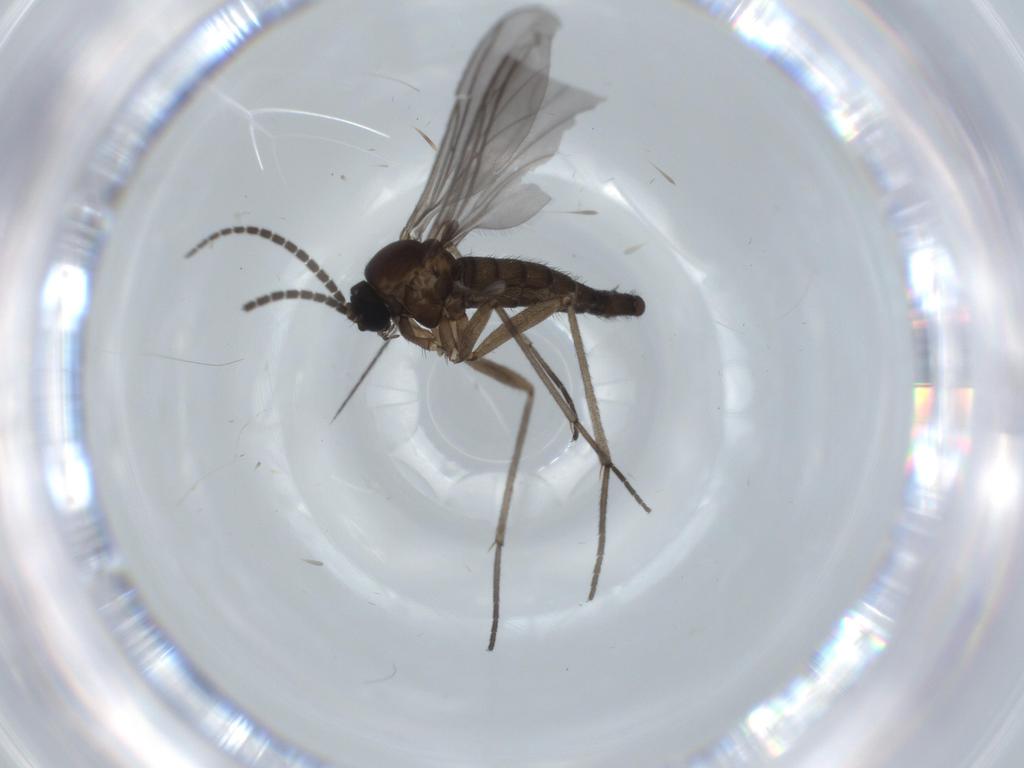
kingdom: Animalia
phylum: Arthropoda
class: Insecta
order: Diptera
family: Sciaridae
